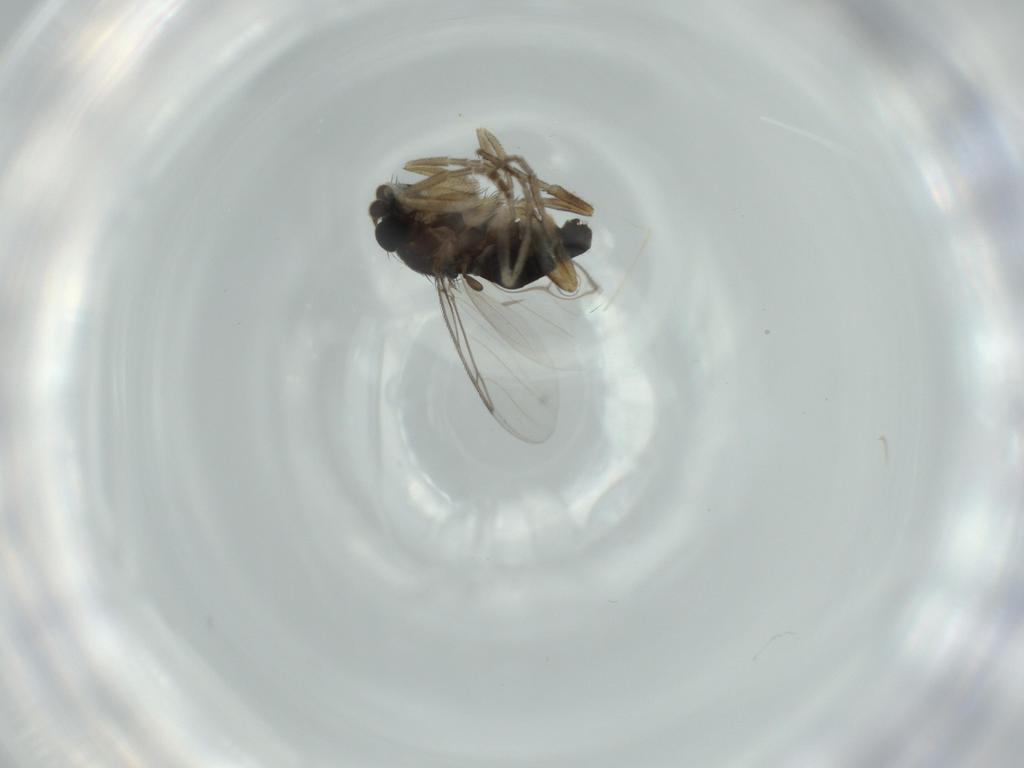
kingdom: Animalia
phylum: Arthropoda
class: Insecta
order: Diptera
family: Phoridae
